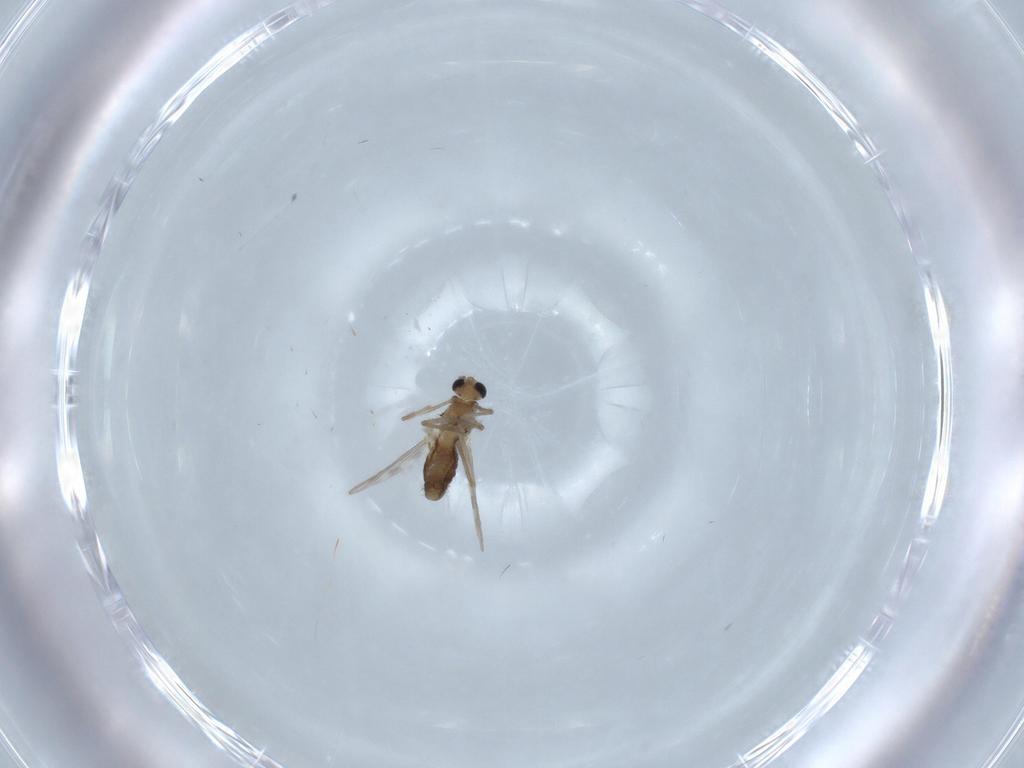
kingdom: Animalia
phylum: Arthropoda
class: Insecta
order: Diptera
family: Chironomidae
